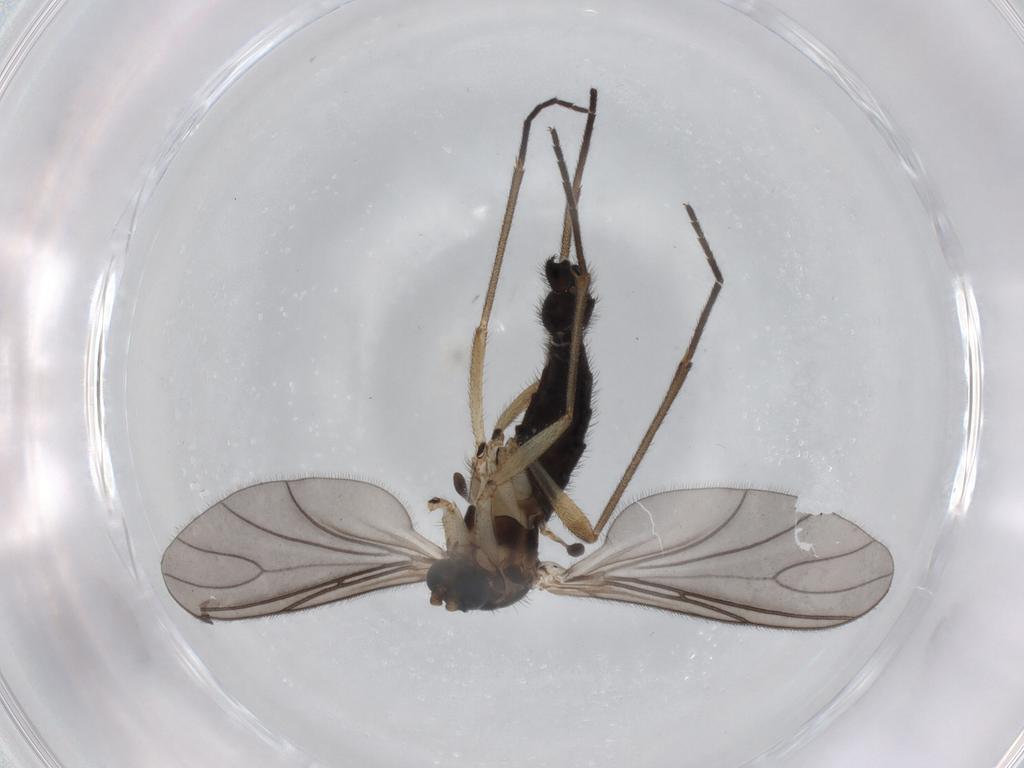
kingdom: Animalia
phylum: Arthropoda
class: Insecta
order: Diptera
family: Sciaridae
